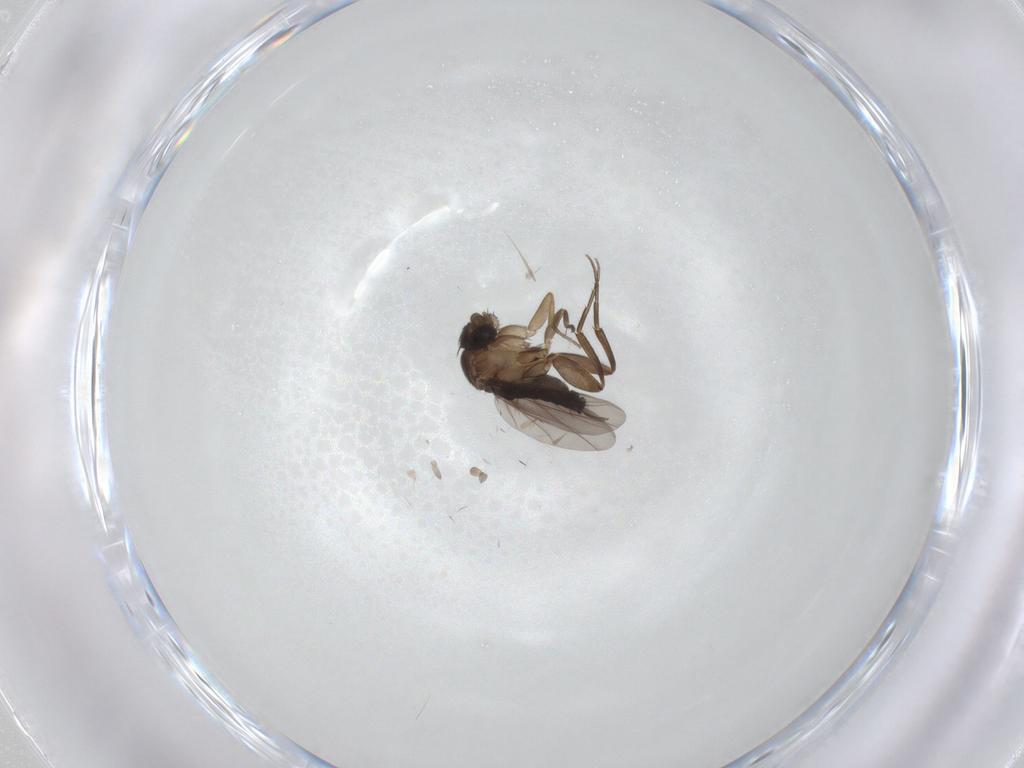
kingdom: Animalia
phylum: Arthropoda
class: Insecta
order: Diptera
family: Phoridae
